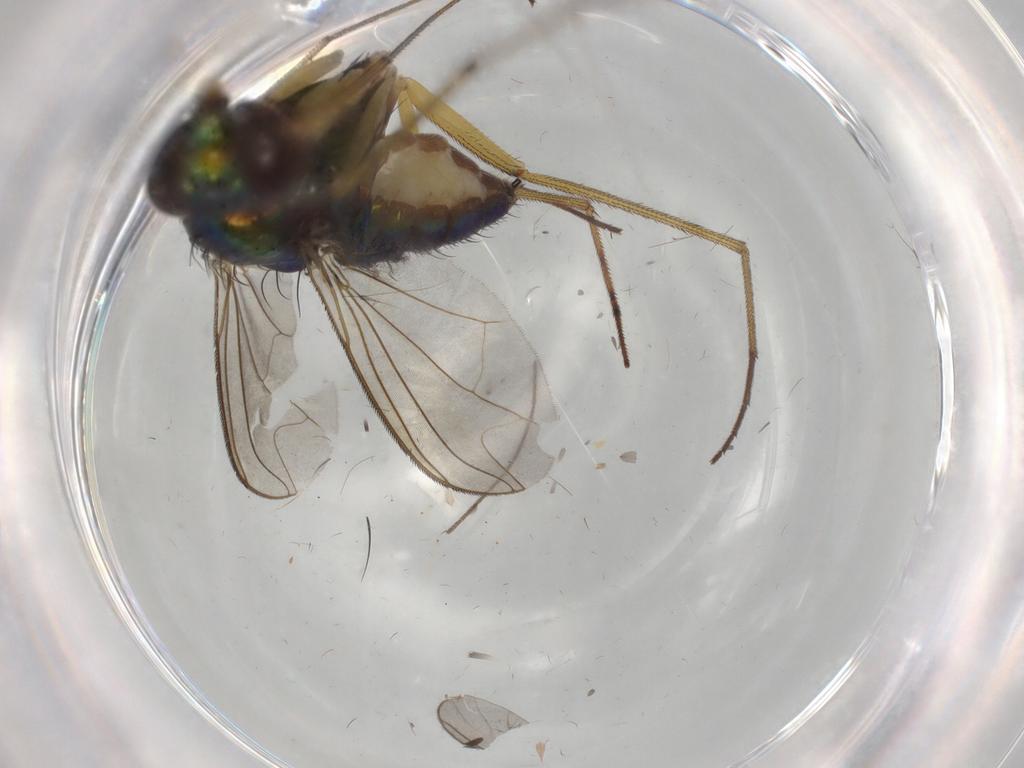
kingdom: Animalia
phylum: Arthropoda
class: Insecta
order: Diptera
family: Dolichopodidae
